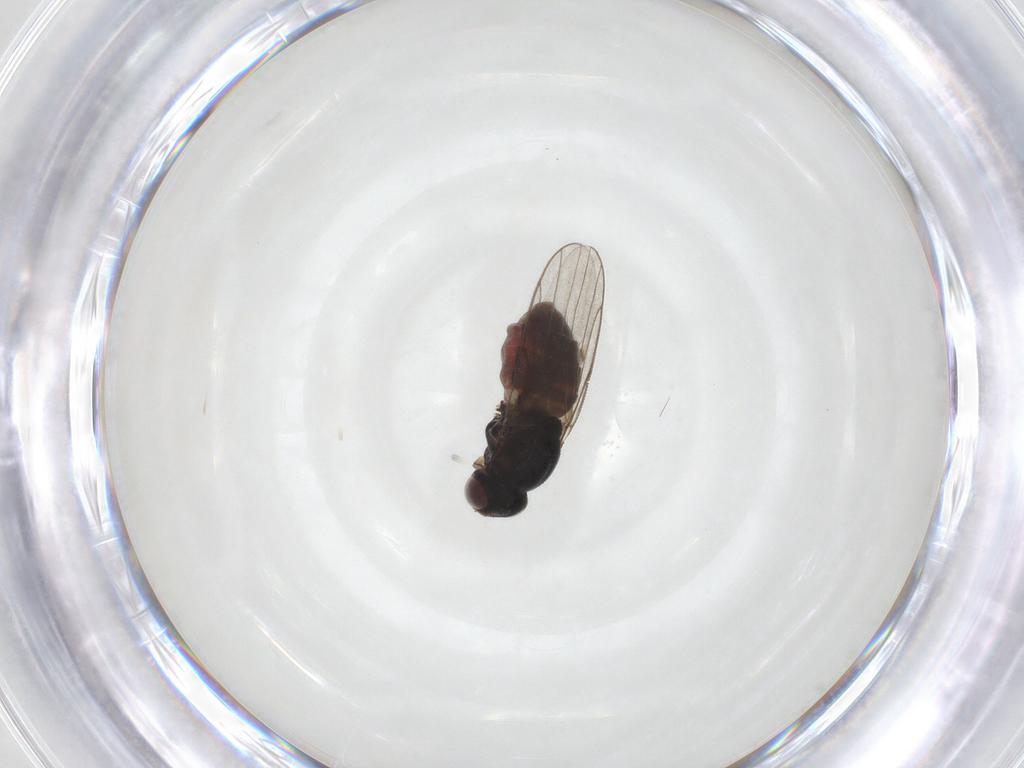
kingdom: Animalia
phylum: Arthropoda
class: Insecta
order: Diptera
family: Chloropidae
